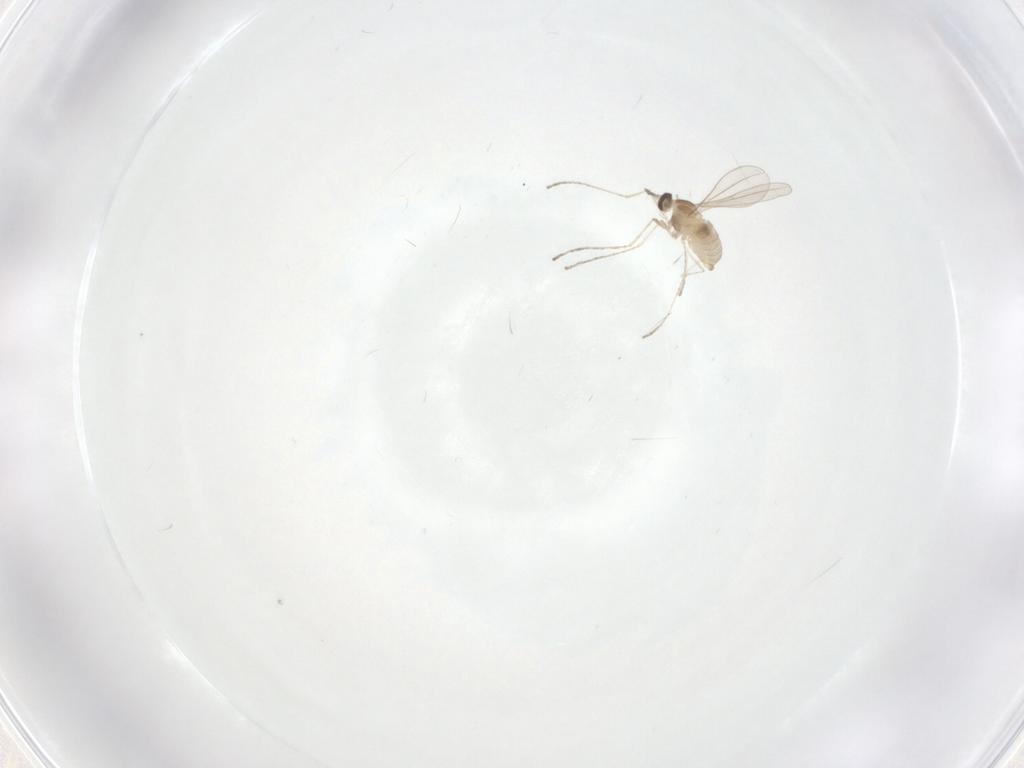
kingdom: Animalia
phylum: Arthropoda
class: Insecta
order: Diptera
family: Cecidomyiidae
